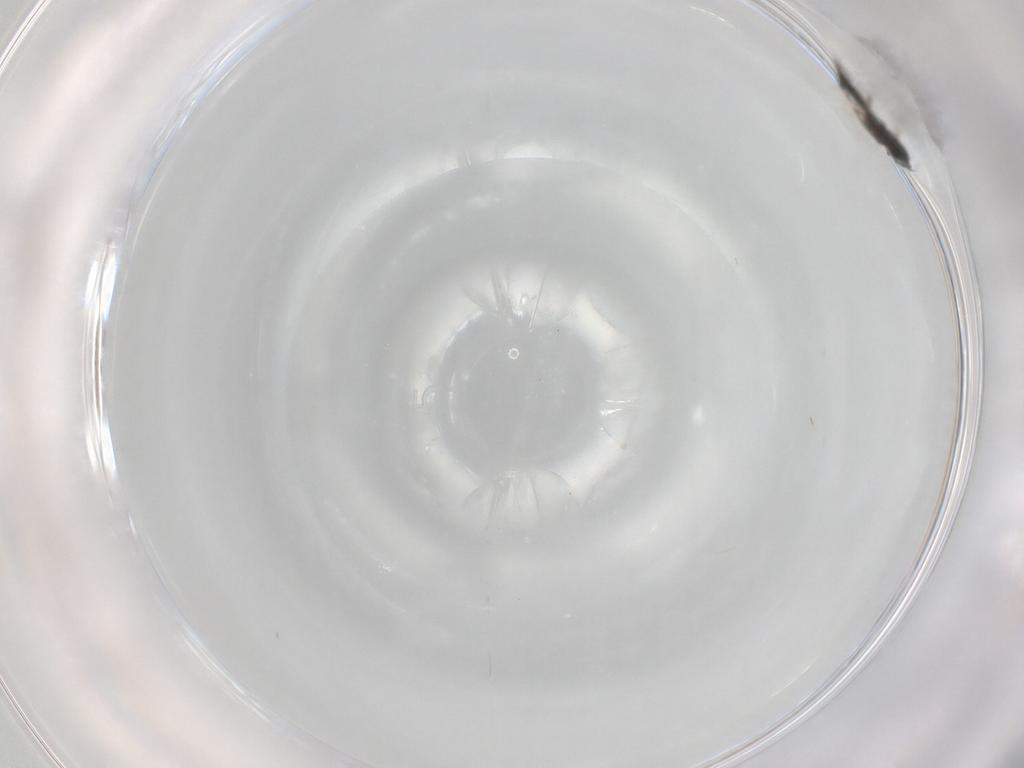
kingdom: Animalia
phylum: Arthropoda
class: Insecta
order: Diptera
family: Cecidomyiidae
